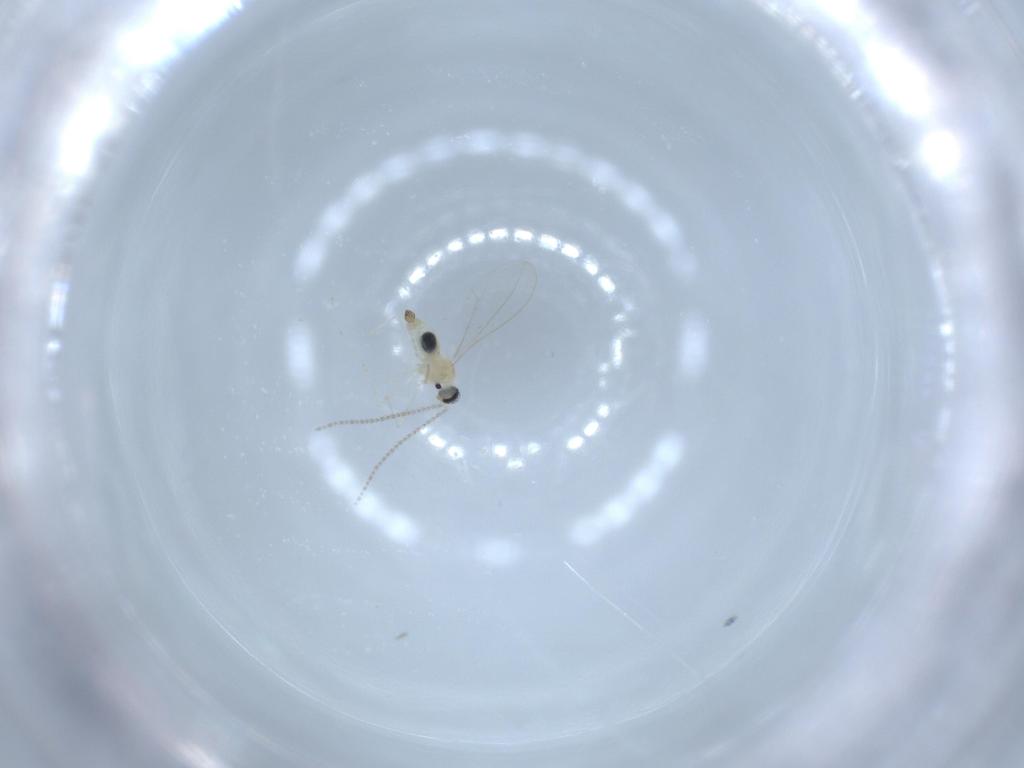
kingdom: Animalia
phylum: Arthropoda
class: Insecta
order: Diptera
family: Cecidomyiidae
